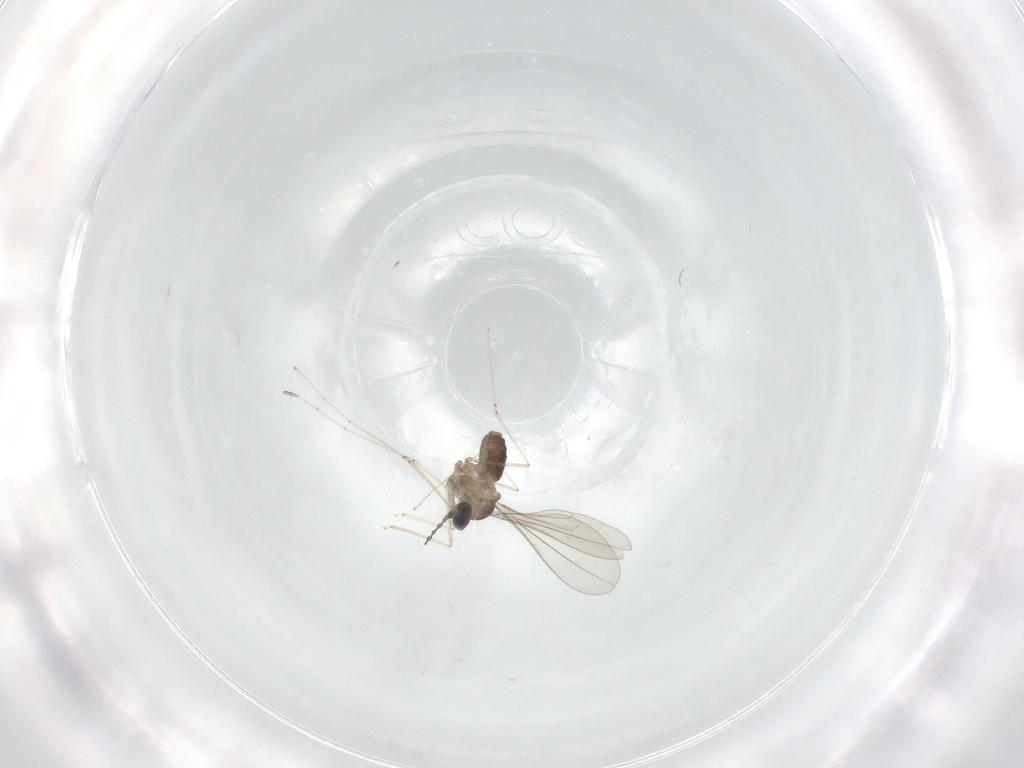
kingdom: Animalia
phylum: Arthropoda
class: Insecta
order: Diptera
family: Cecidomyiidae
